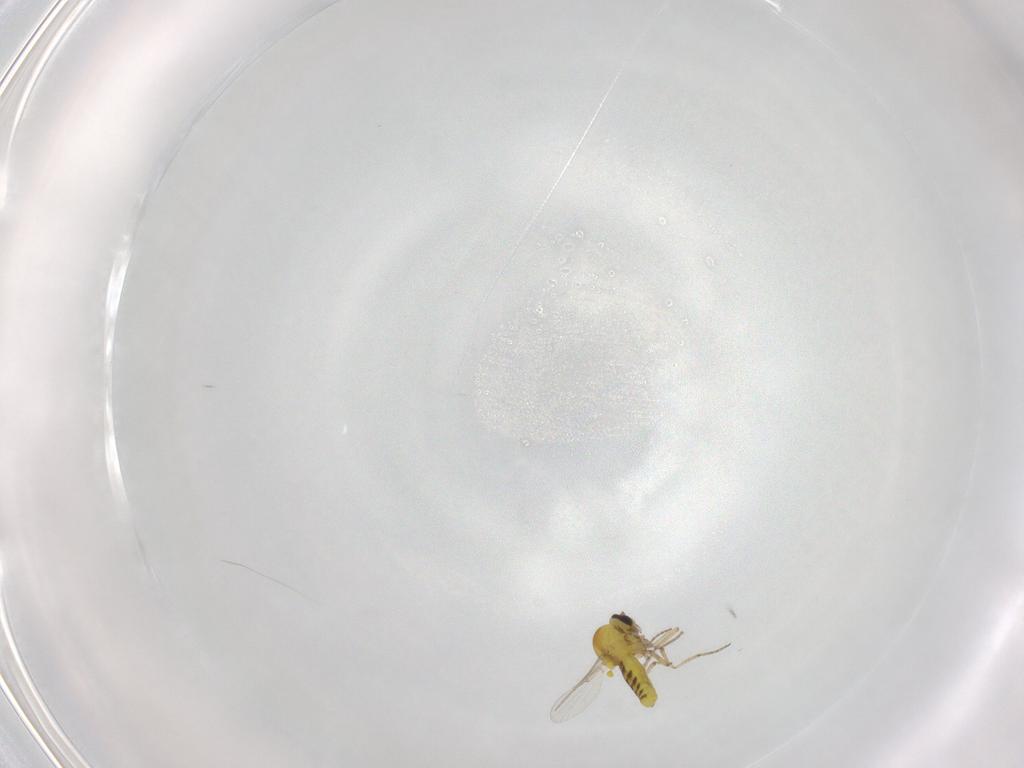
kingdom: Animalia
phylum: Arthropoda
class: Insecta
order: Diptera
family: Ceratopogonidae
